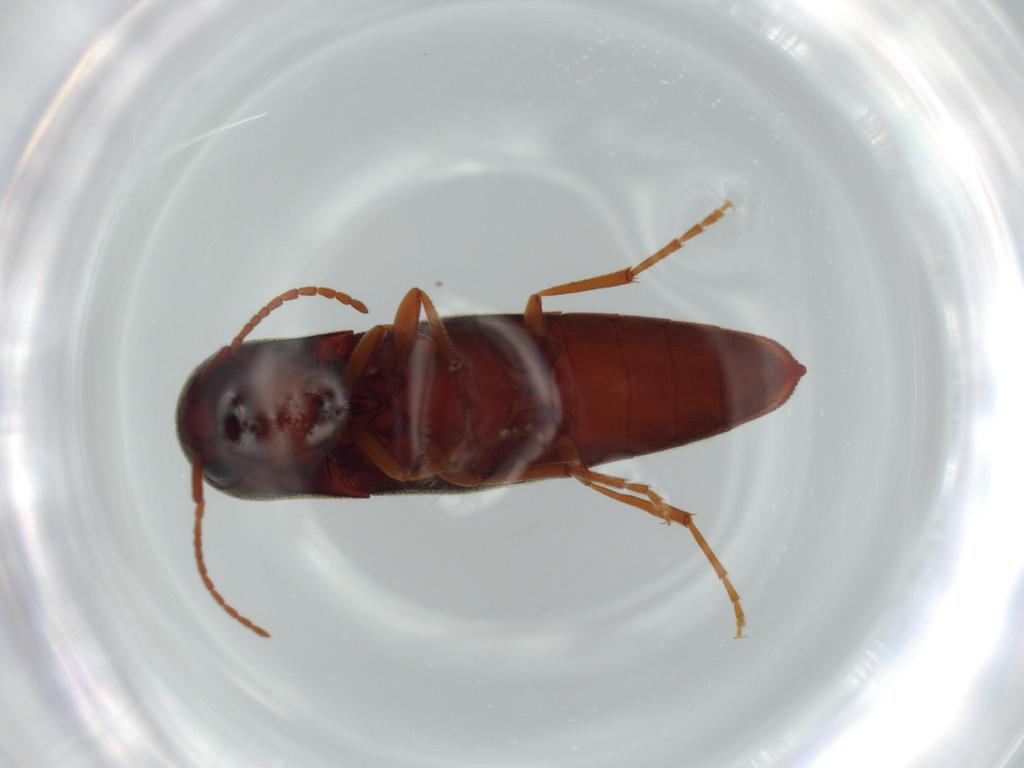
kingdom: Animalia
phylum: Arthropoda
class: Insecta
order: Coleoptera
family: Eucnemidae
